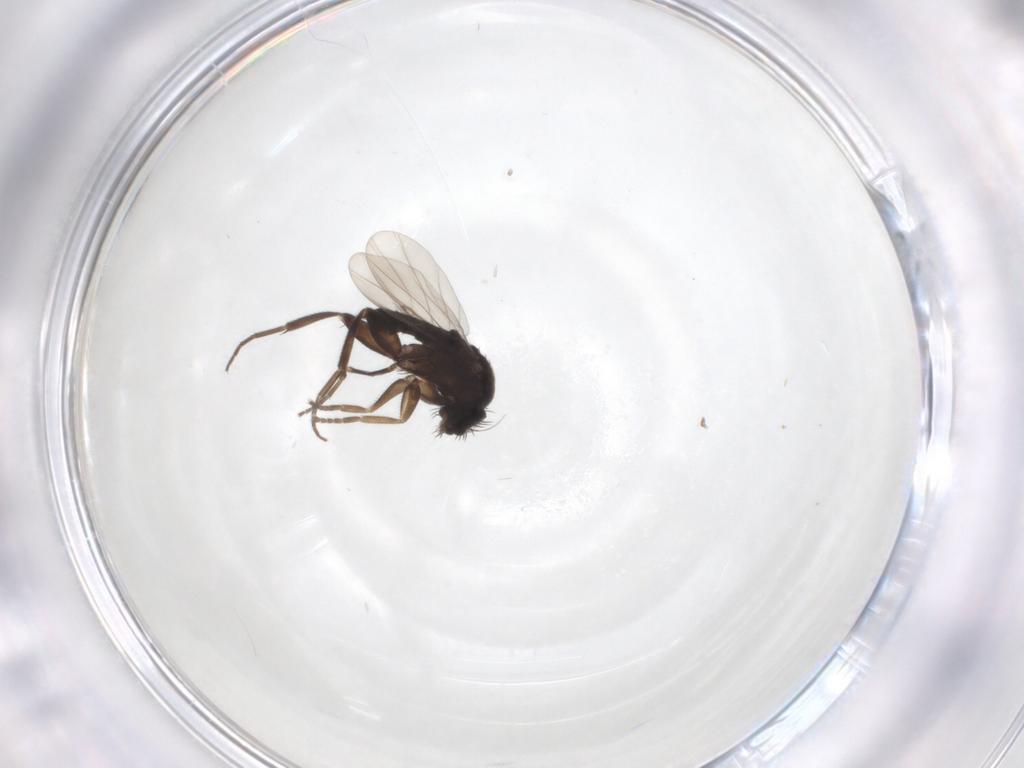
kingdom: Animalia
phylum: Arthropoda
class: Insecta
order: Diptera
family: Phoridae
